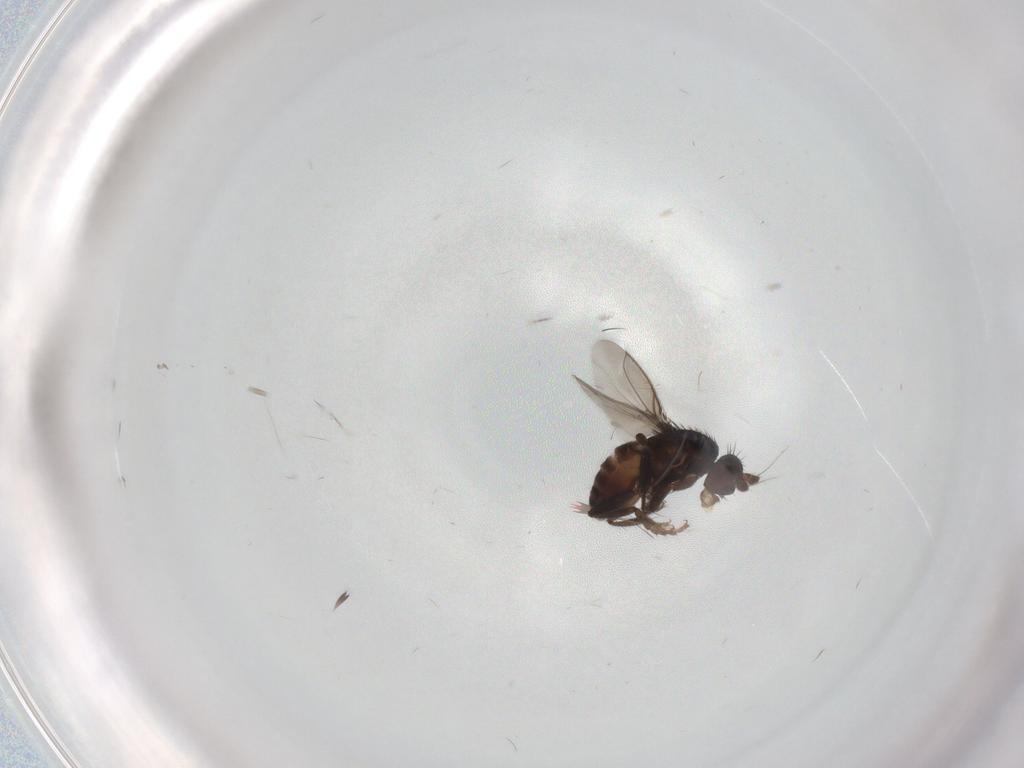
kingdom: Animalia
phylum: Arthropoda
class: Insecta
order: Diptera
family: Sphaeroceridae
